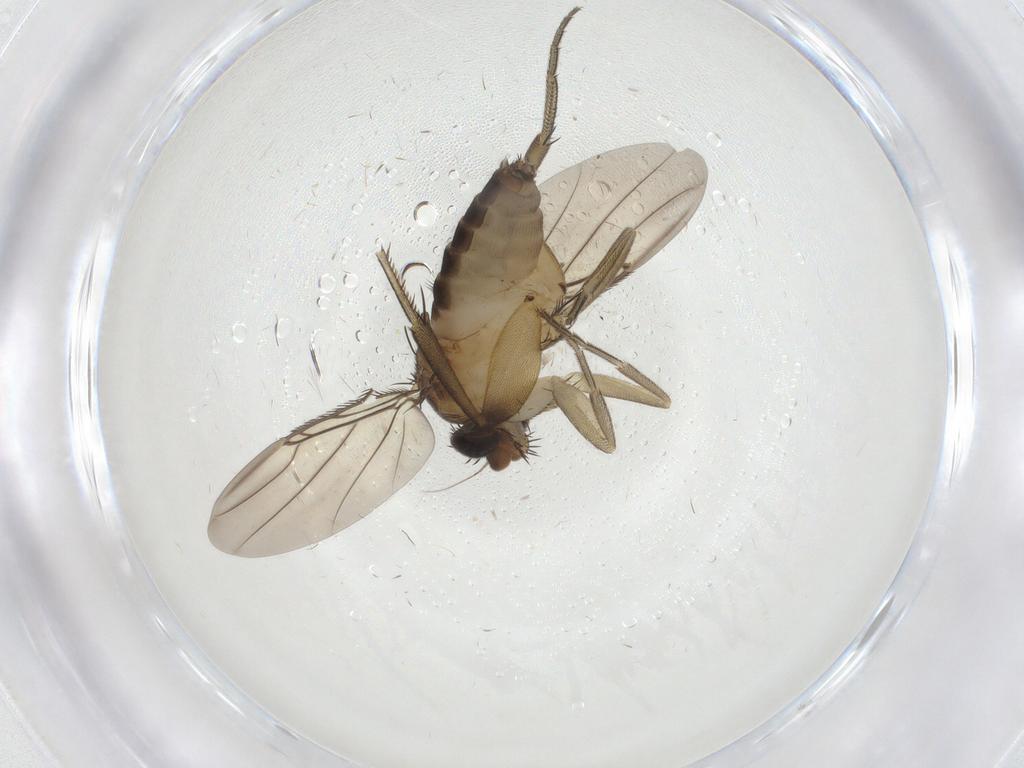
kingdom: Animalia
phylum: Arthropoda
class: Insecta
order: Diptera
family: Phoridae
